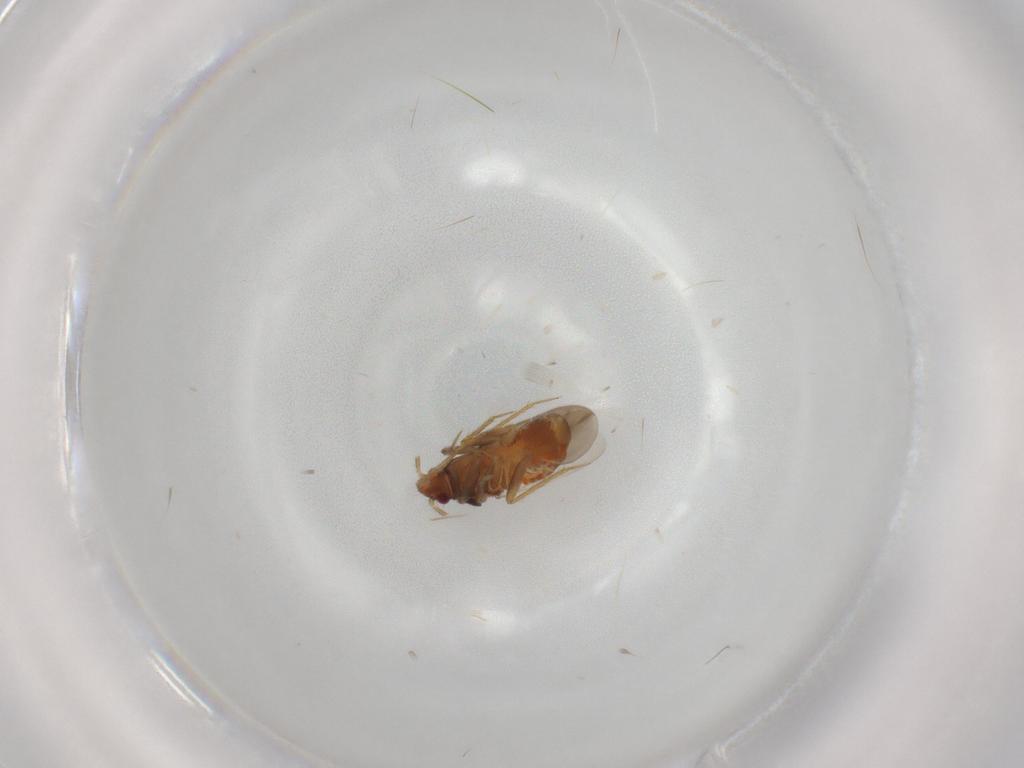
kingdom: Animalia
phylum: Arthropoda
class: Insecta
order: Hemiptera
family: Ceratocombidae
